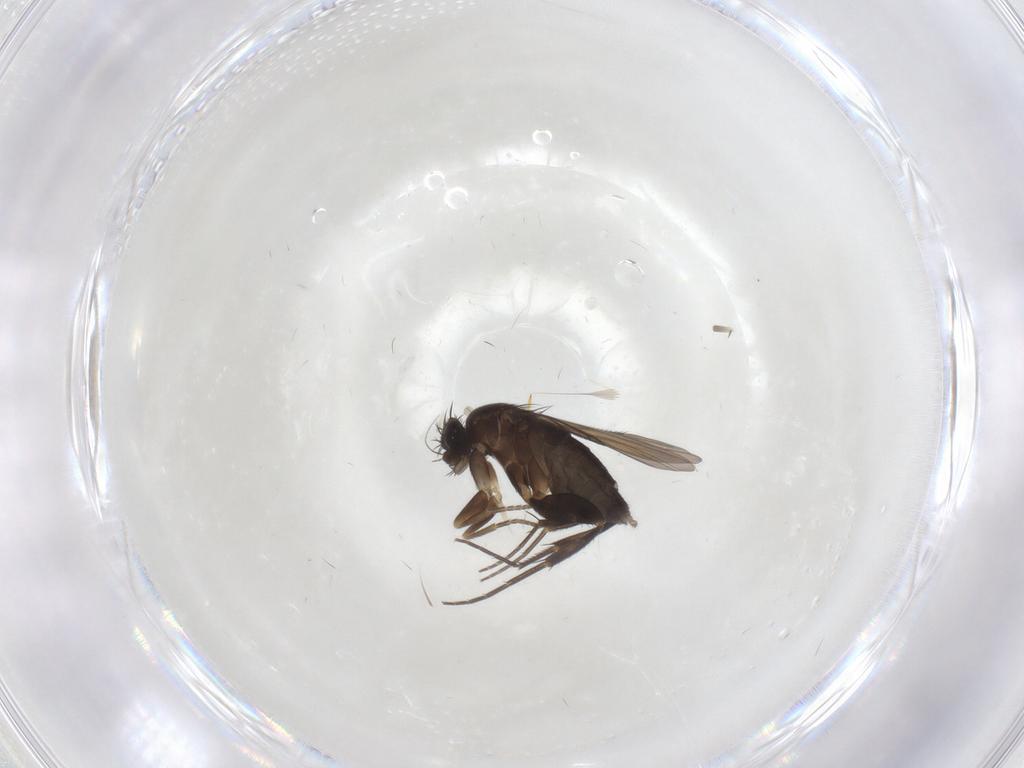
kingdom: Animalia
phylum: Arthropoda
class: Insecta
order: Diptera
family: Phoridae
